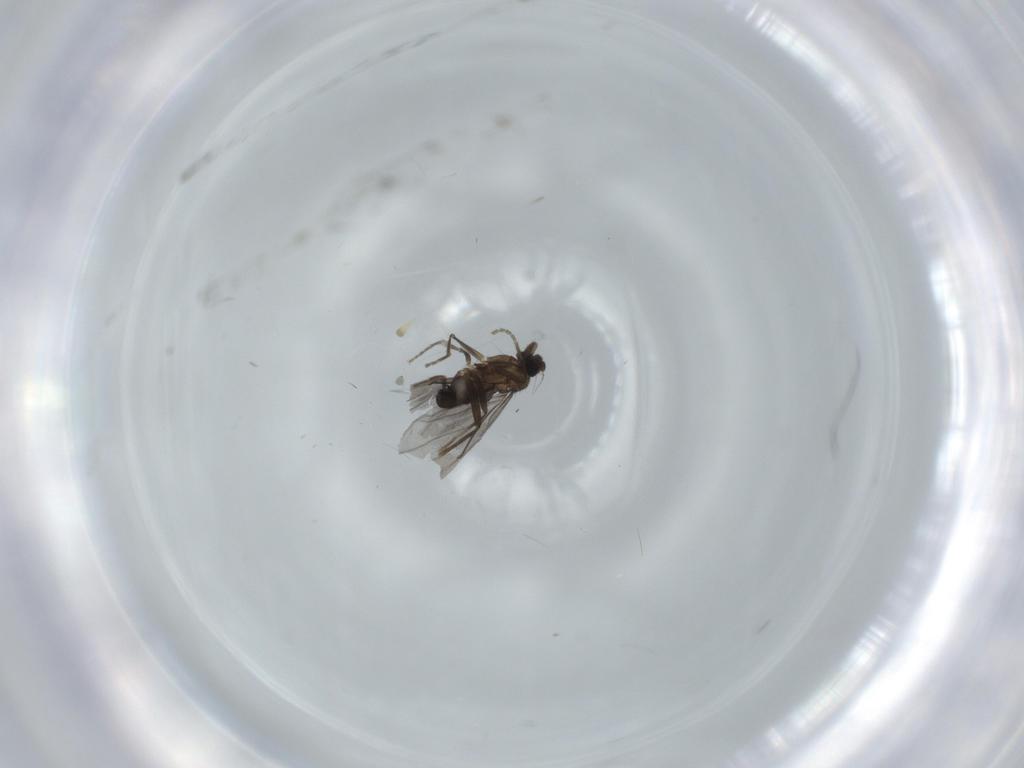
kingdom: Animalia
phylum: Arthropoda
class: Insecta
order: Diptera
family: Phoridae
